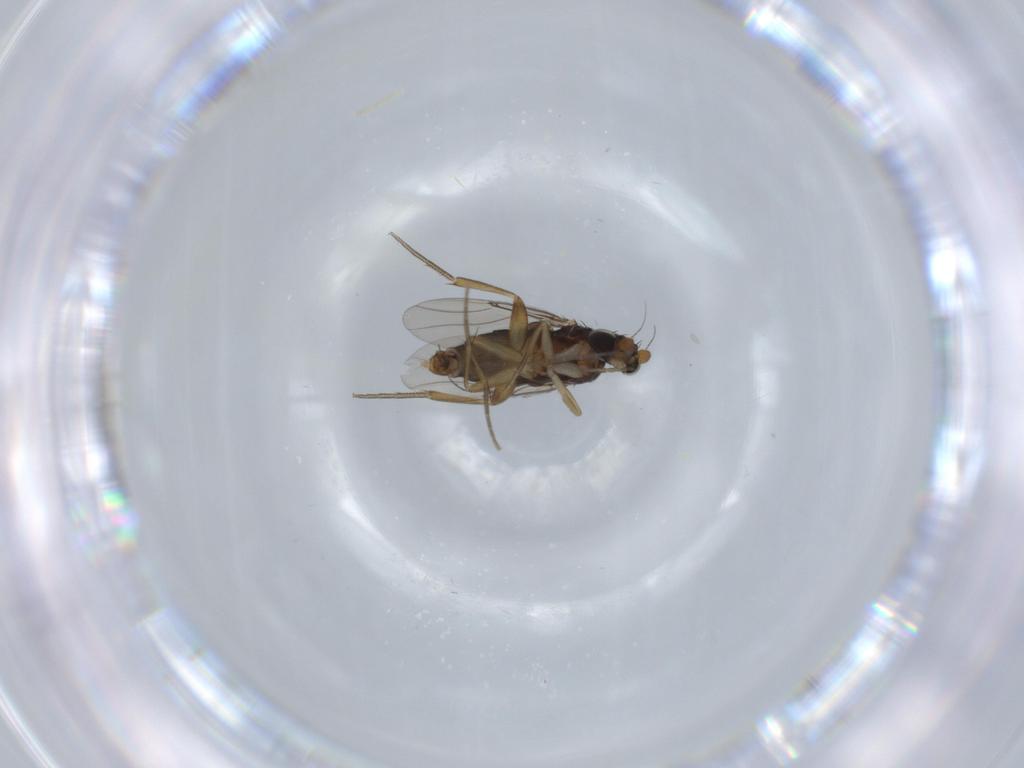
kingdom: Animalia
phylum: Arthropoda
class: Insecta
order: Diptera
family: Phoridae
